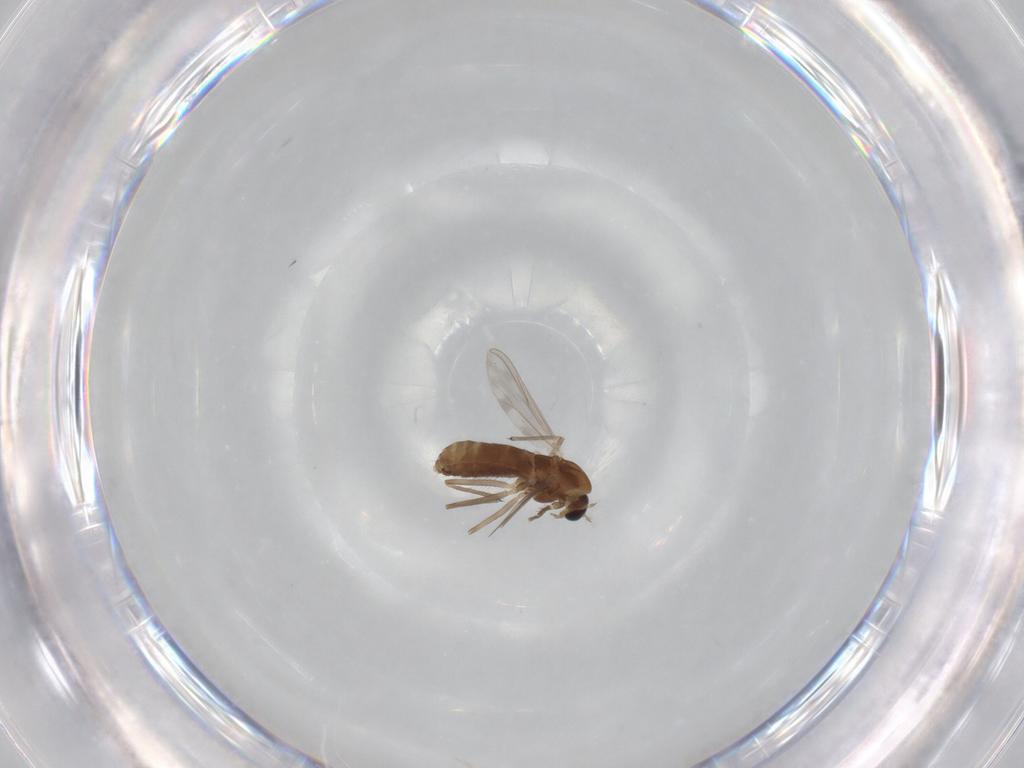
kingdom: Animalia
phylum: Arthropoda
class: Insecta
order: Diptera
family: Chironomidae
